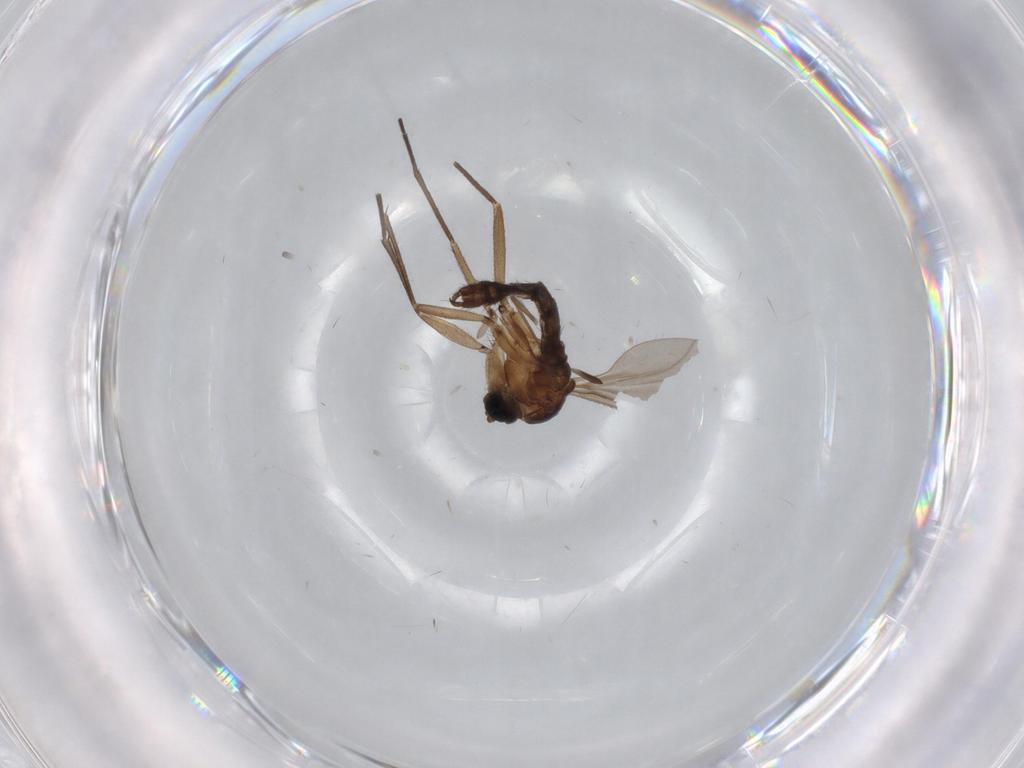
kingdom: Animalia
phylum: Arthropoda
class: Insecta
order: Diptera
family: Chironomidae
